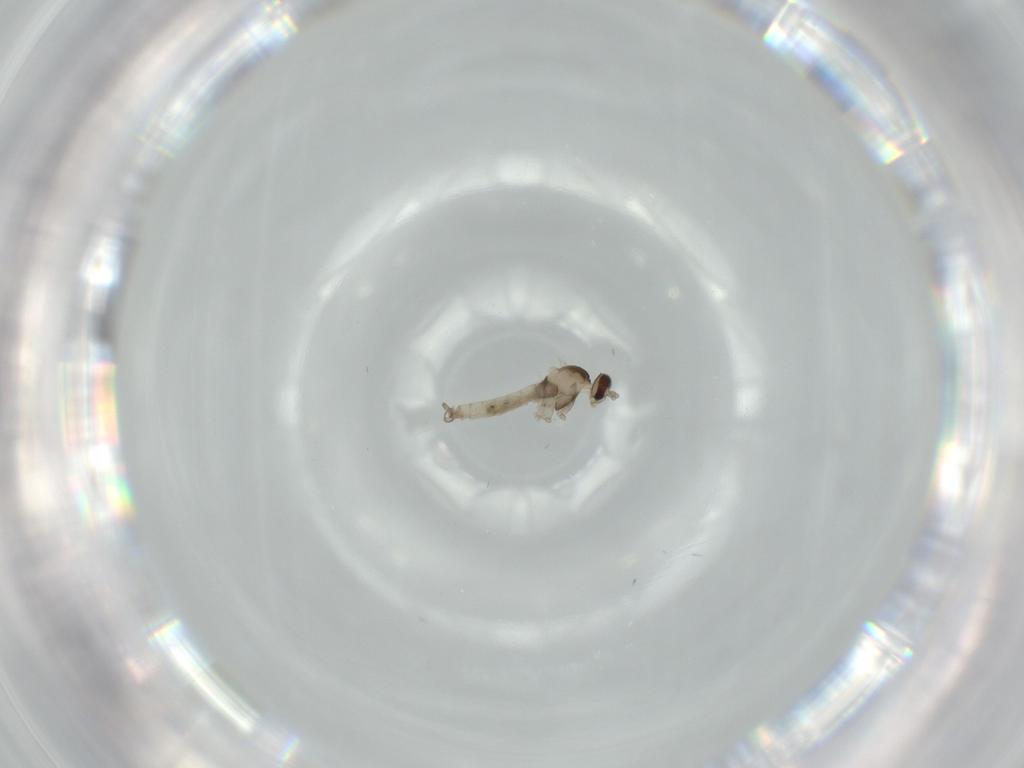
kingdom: Animalia
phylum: Arthropoda
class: Insecta
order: Diptera
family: Cecidomyiidae
